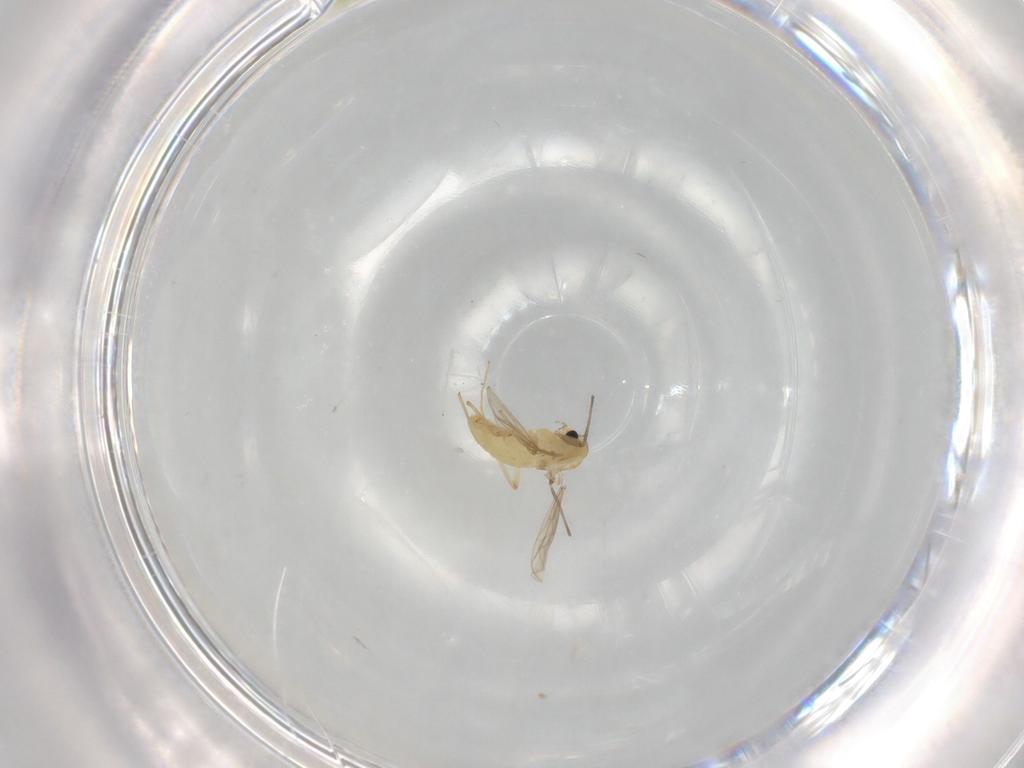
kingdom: Animalia
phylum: Arthropoda
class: Insecta
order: Diptera
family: Chironomidae
